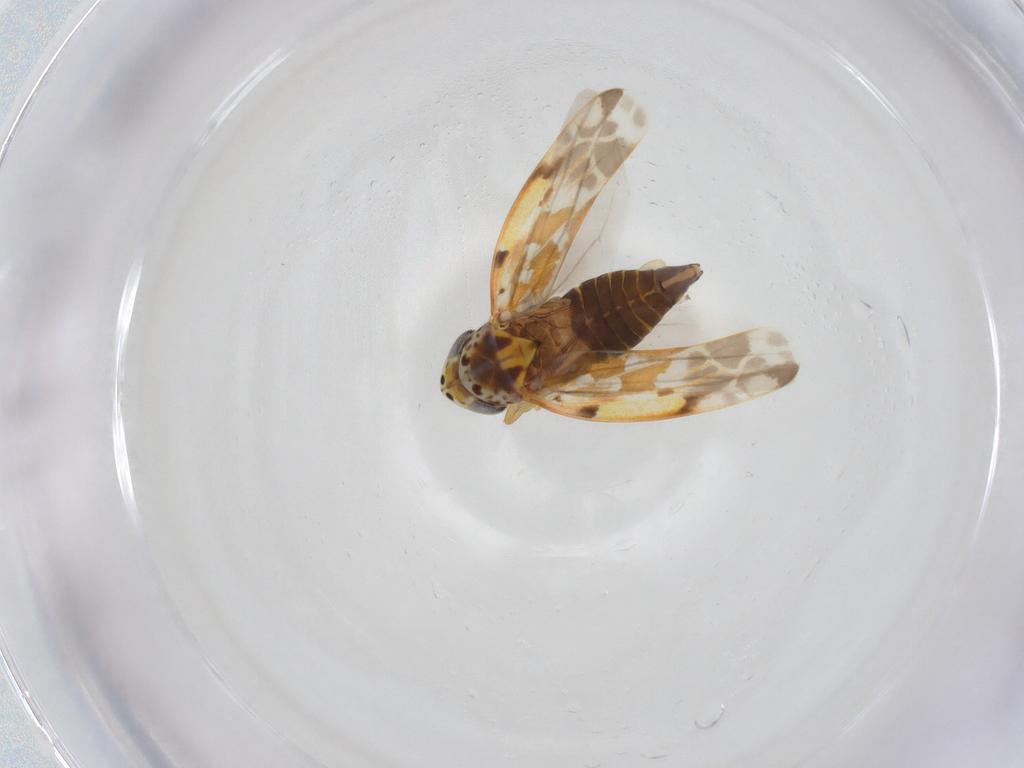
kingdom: Animalia
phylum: Arthropoda
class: Insecta
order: Hemiptera
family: Cicadellidae
